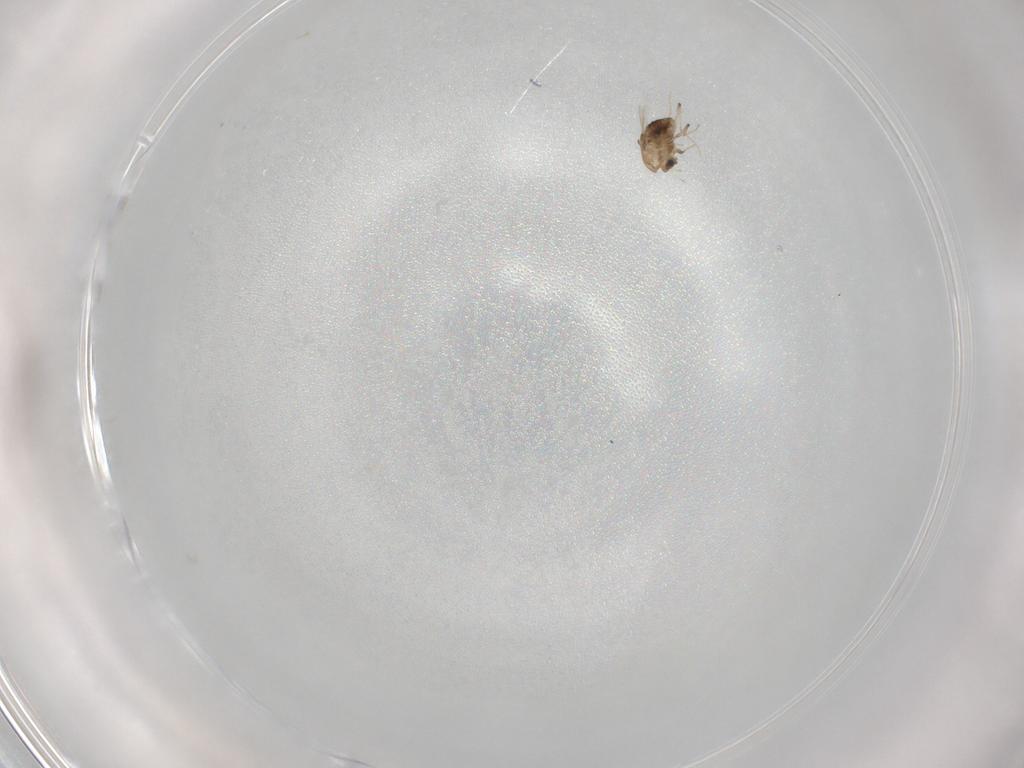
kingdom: Animalia
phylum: Arthropoda
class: Insecta
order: Diptera
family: Chironomidae
